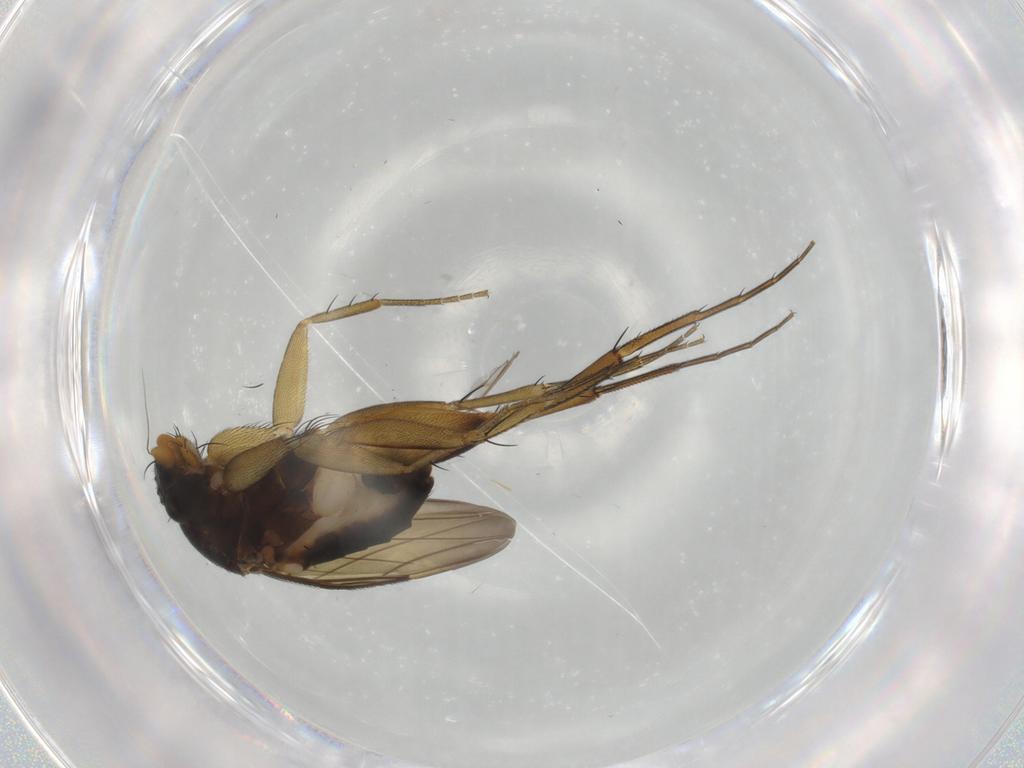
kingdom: Animalia
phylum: Arthropoda
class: Insecta
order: Diptera
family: Phoridae
